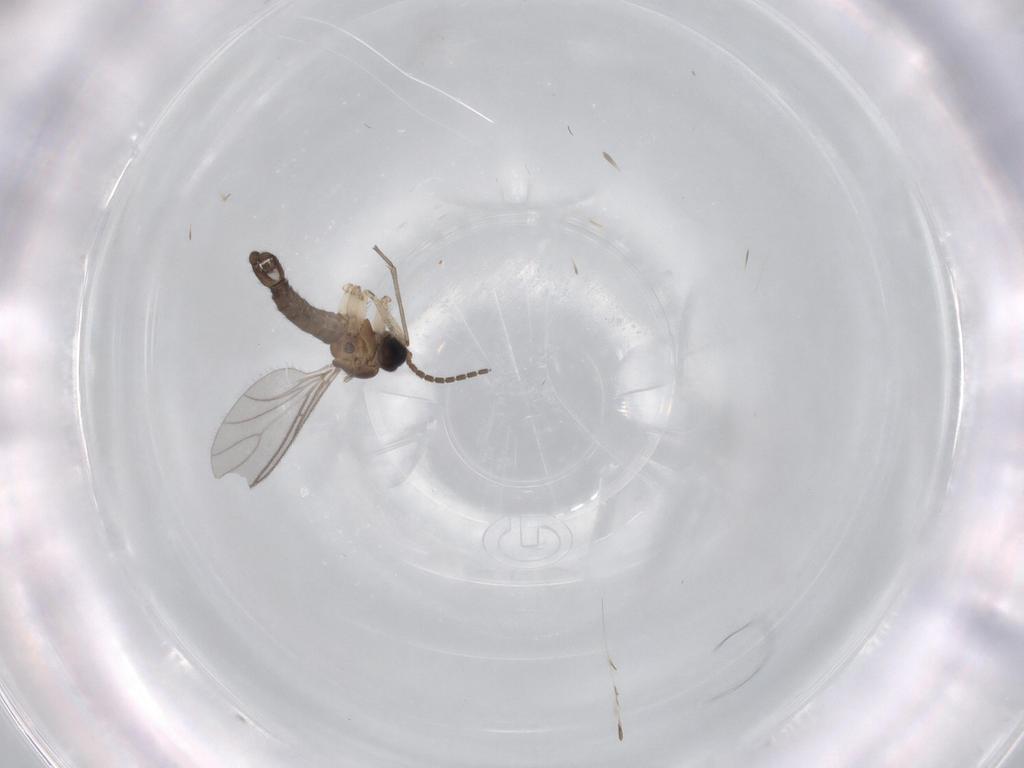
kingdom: Animalia
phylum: Arthropoda
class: Insecta
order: Diptera
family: Sciaridae
